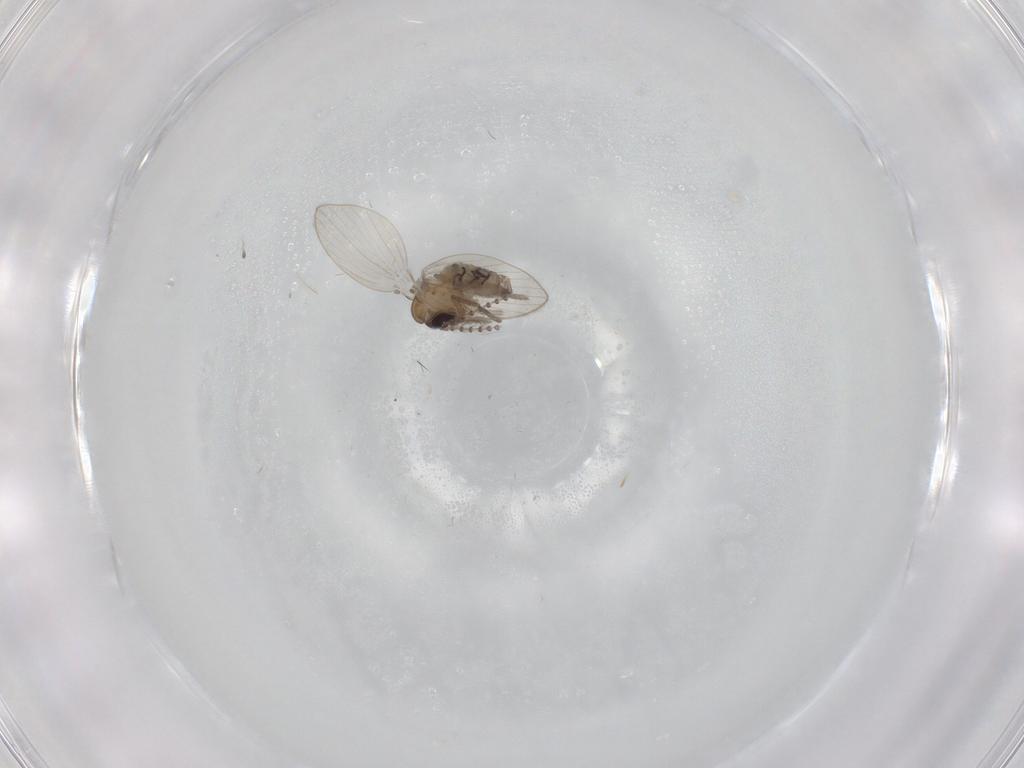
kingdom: Animalia
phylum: Arthropoda
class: Insecta
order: Diptera
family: Psychodidae
